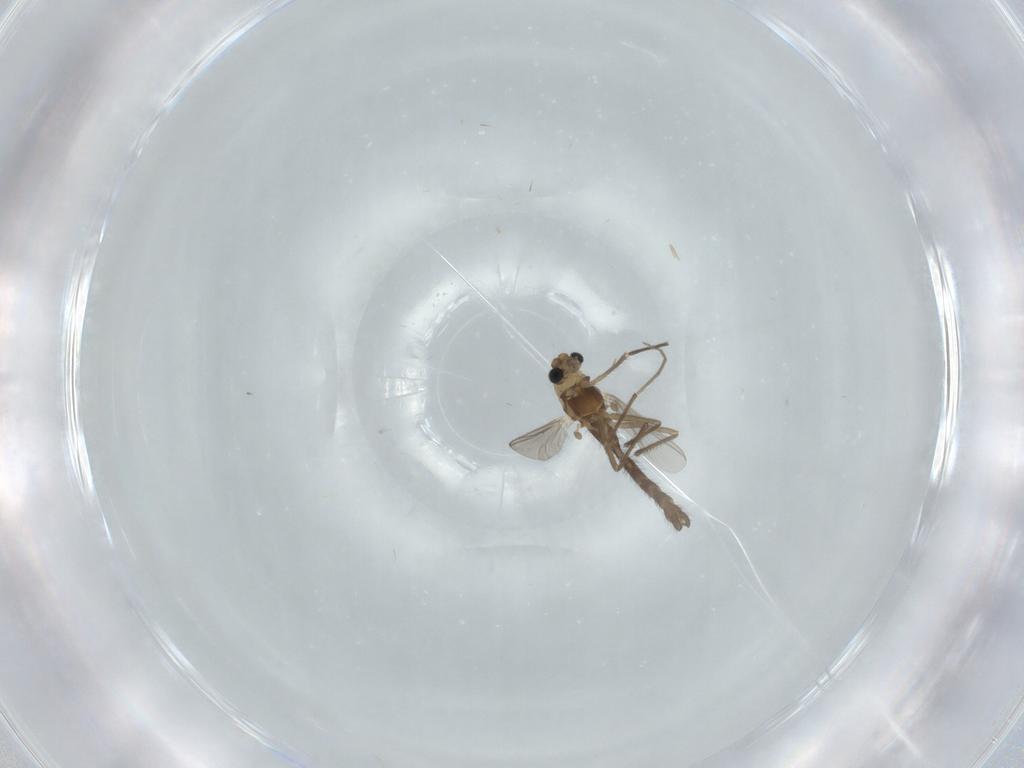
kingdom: Animalia
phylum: Arthropoda
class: Insecta
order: Diptera
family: Chironomidae
